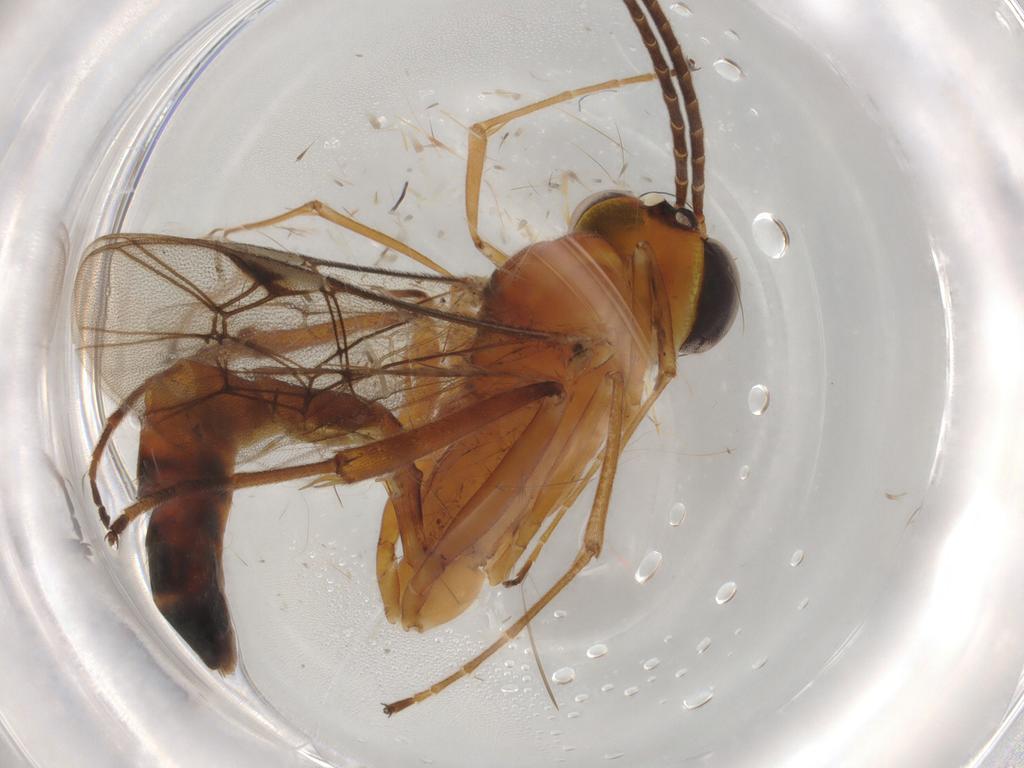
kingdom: Animalia
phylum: Arthropoda
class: Insecta
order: Hymenoptera
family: Ichneumonidae
